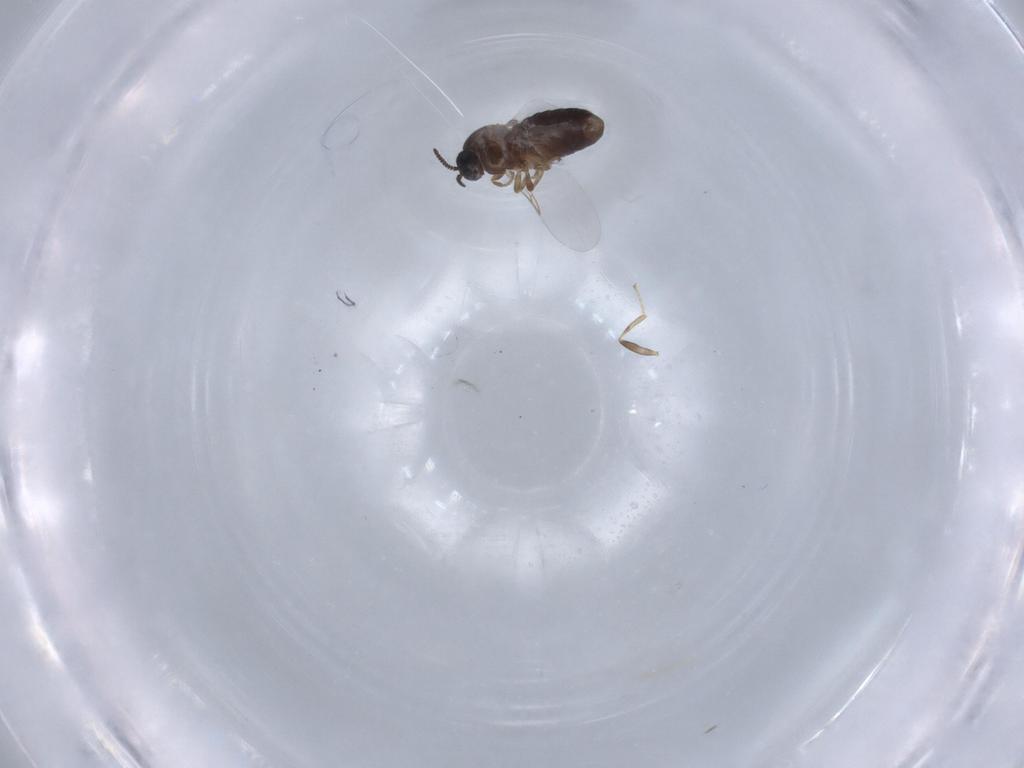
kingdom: Animalia
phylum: Arthropoda
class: Insecta
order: Diptera
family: Scatopsidae
